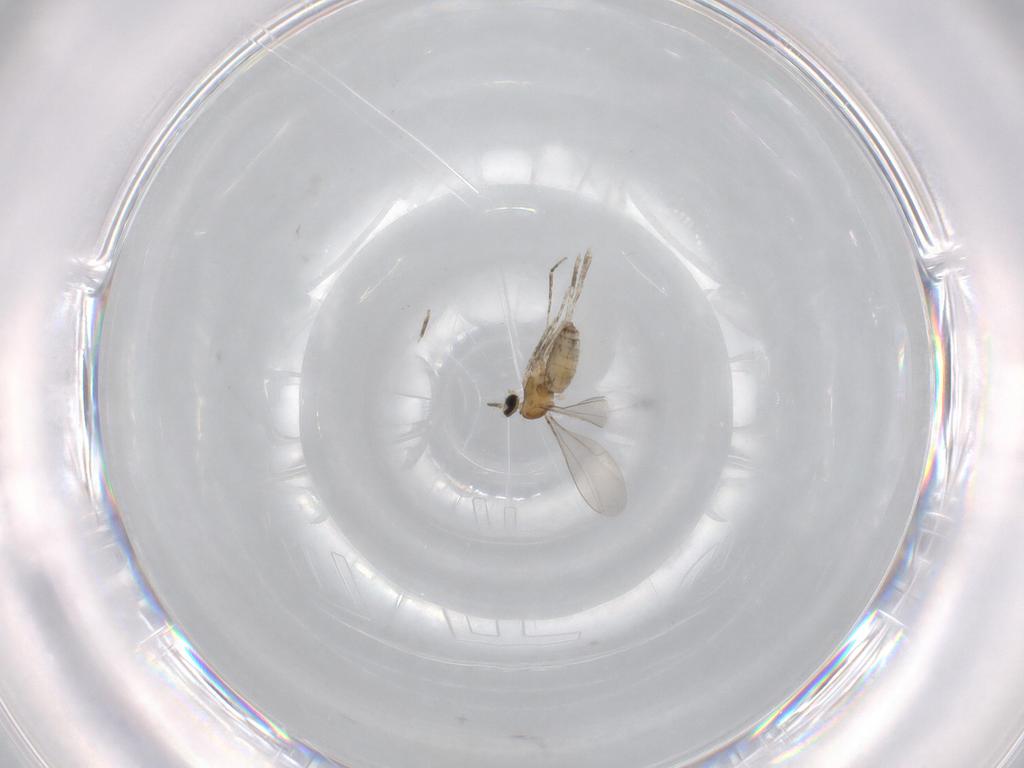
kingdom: Animalia
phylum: Arthropoda
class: Insecta
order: Diptera
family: Cecidomyiidae
